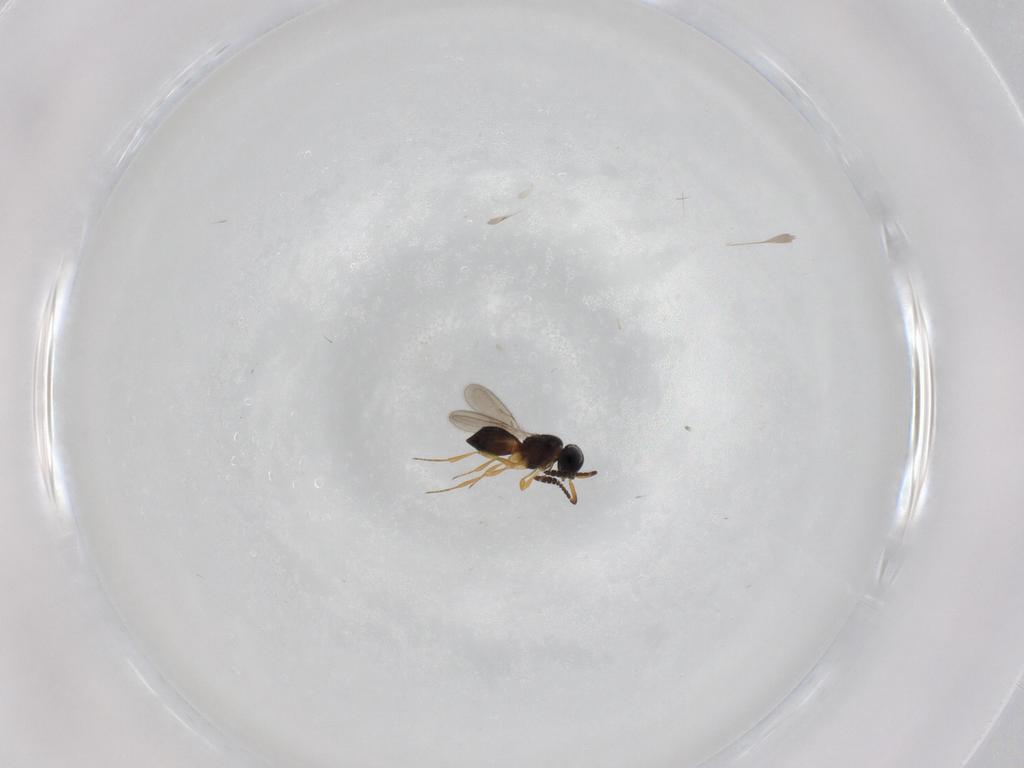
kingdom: Animalia
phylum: Arthropoda
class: Insecta
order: Hymenoptera
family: Scelionidae
